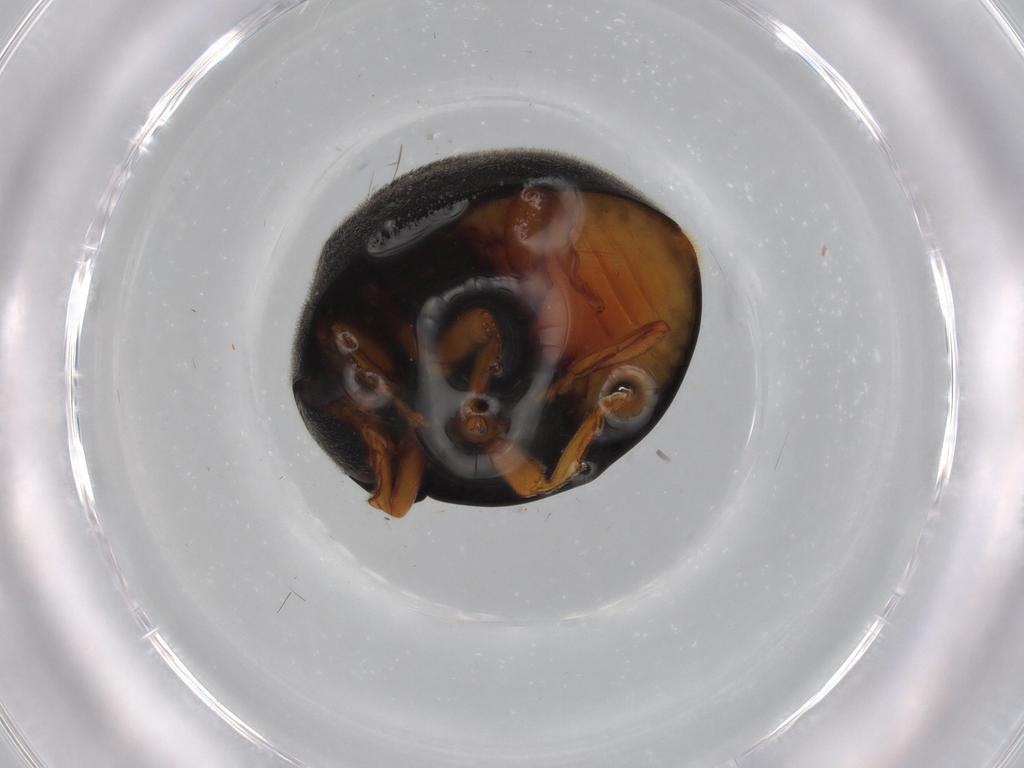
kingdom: Animalia
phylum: Arthropoda
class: Insecta
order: Coleoptera
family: Coccinellidae
